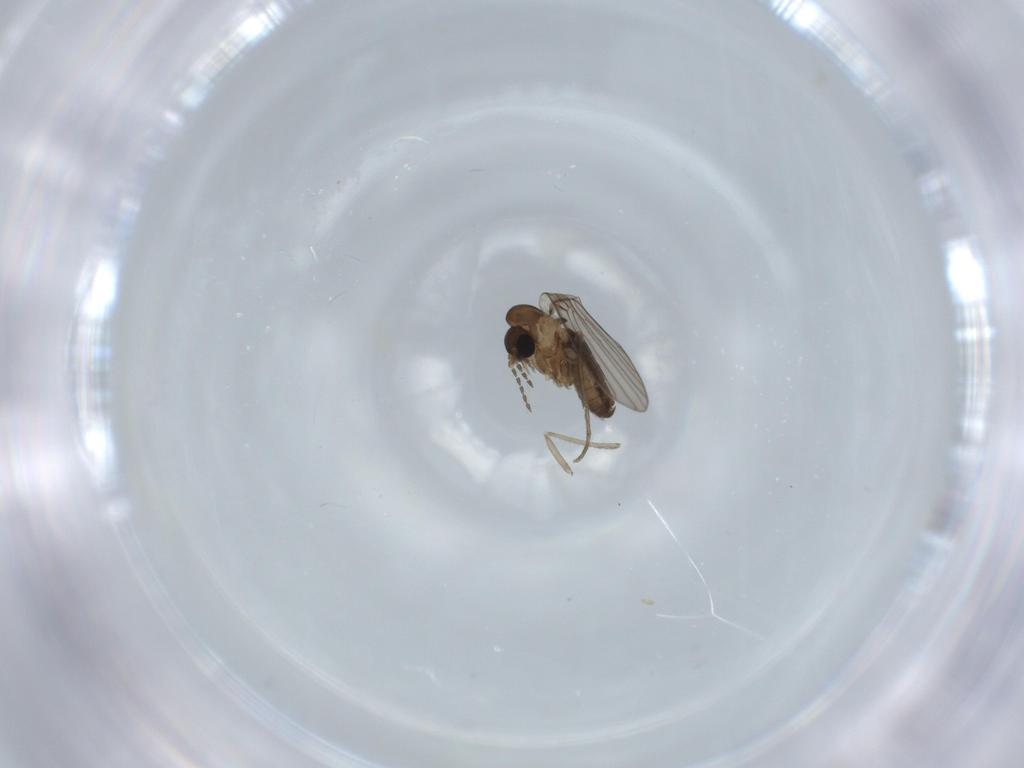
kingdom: Animalia
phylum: Arthropoda
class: Insecta
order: Diptera
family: Psychodidae
